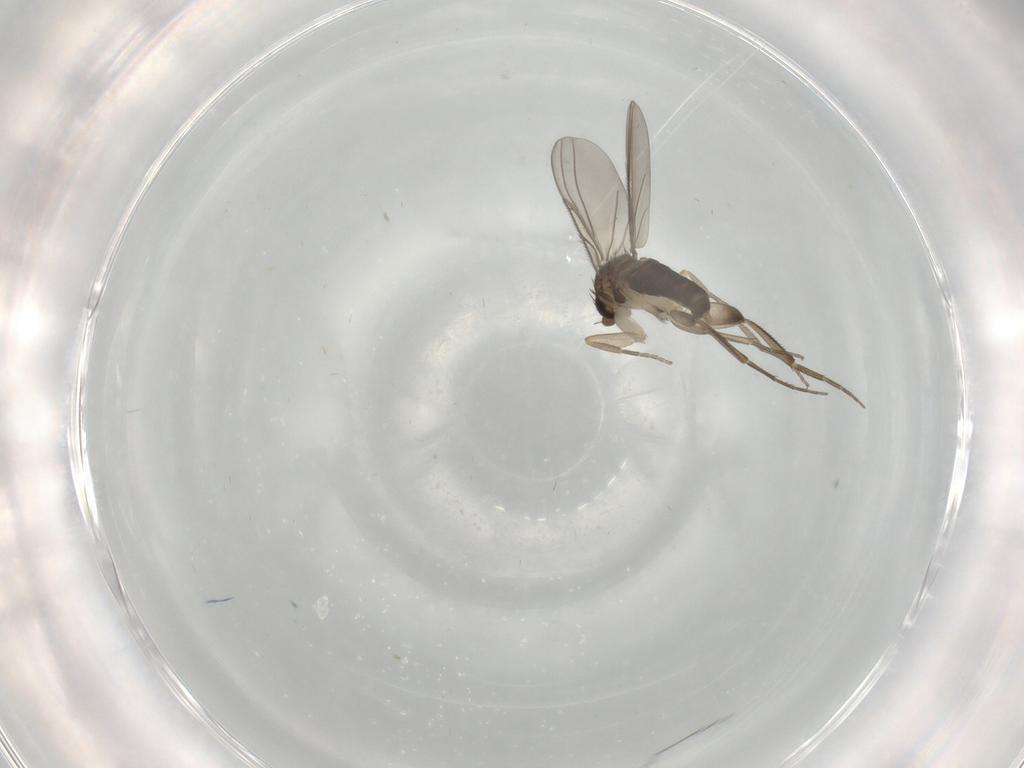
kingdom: Animalia
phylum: Arthropoda
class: Insecta
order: Diptera
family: Phoridae
